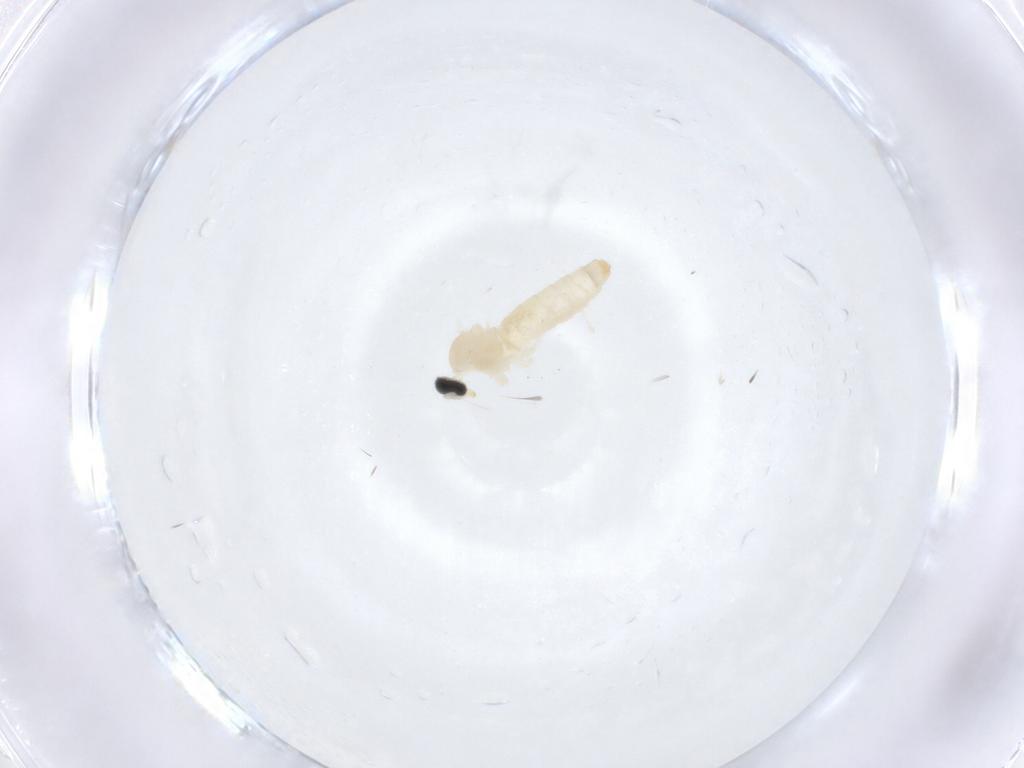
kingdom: Animalia
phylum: Arthropoda
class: Insecta
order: Diptera
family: Cecidomyiidae
